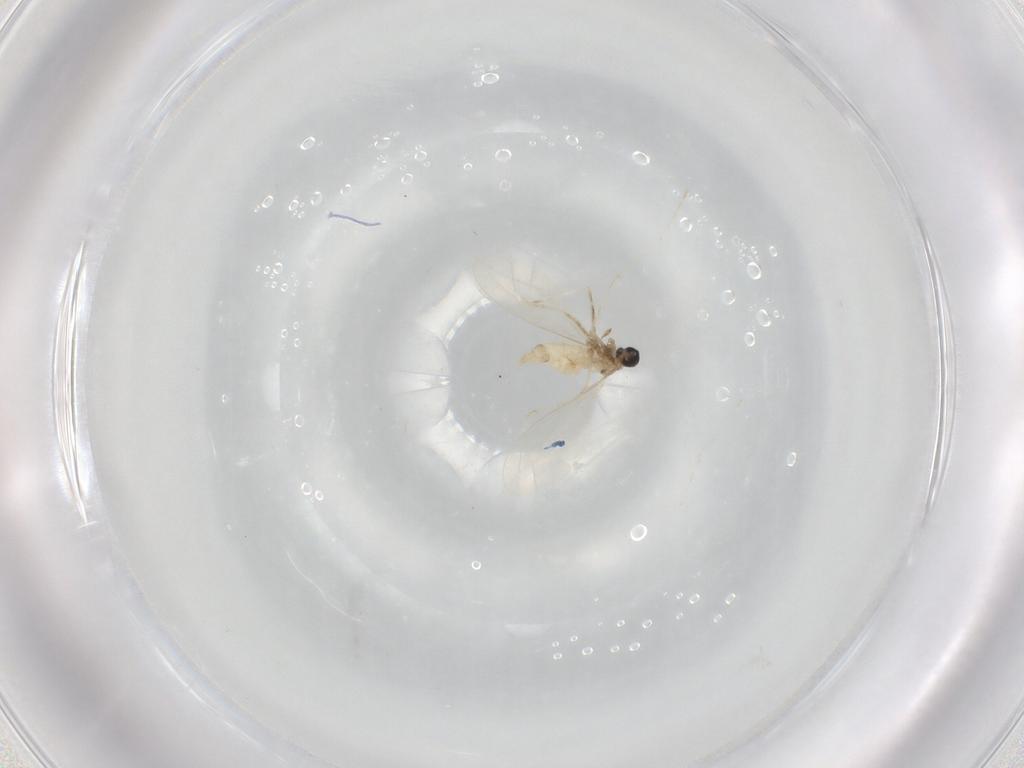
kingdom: Animalia
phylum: Arthropoda
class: Insecta
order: Diptera
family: Cecidomyiidae
